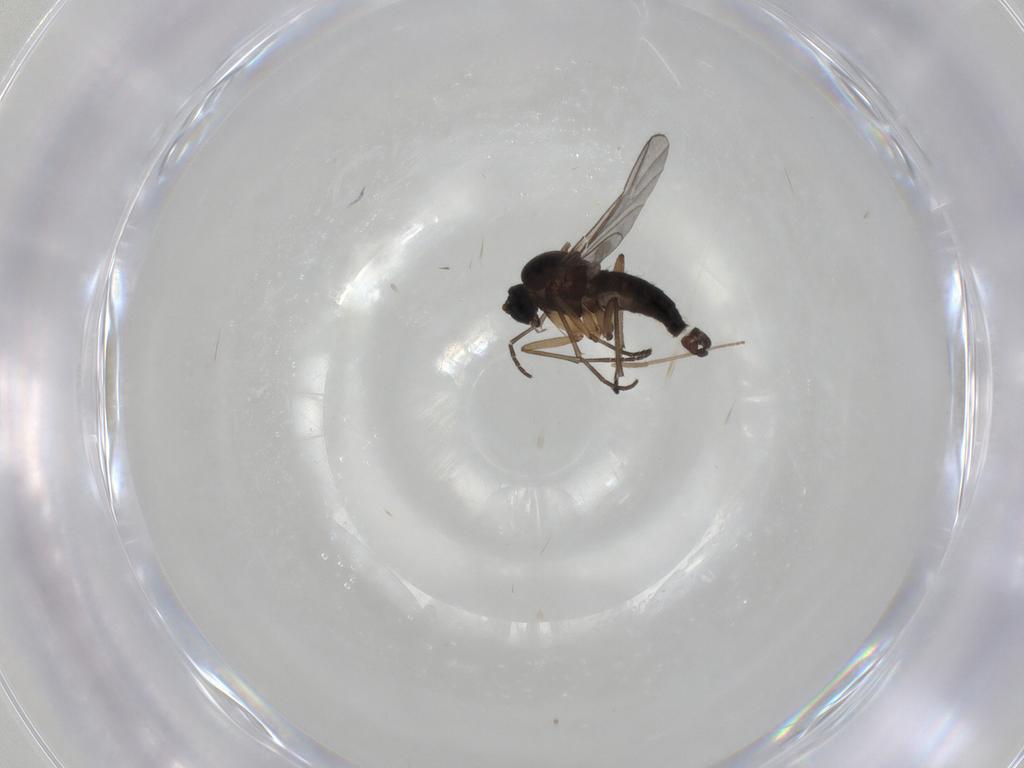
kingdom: Animalia
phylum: Arthropoda
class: Insecta
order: Diptera
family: Sciaridae
